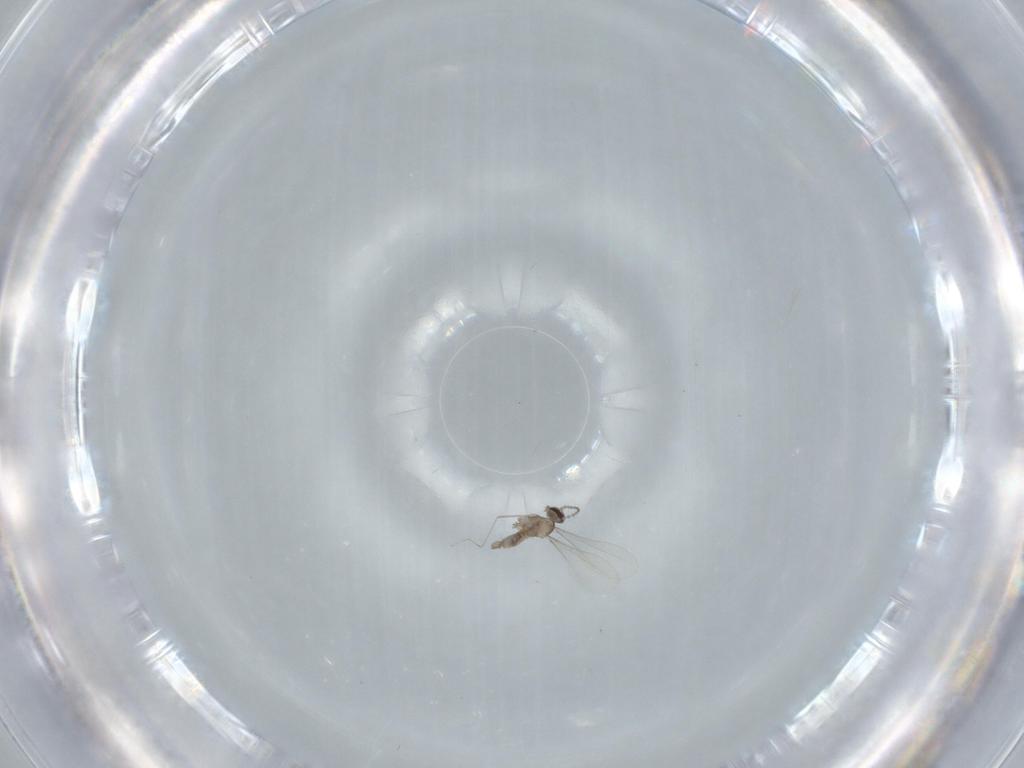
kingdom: Animalia
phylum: Arthropoda
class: Insecta
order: Diptera
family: Cecidomyiidae
